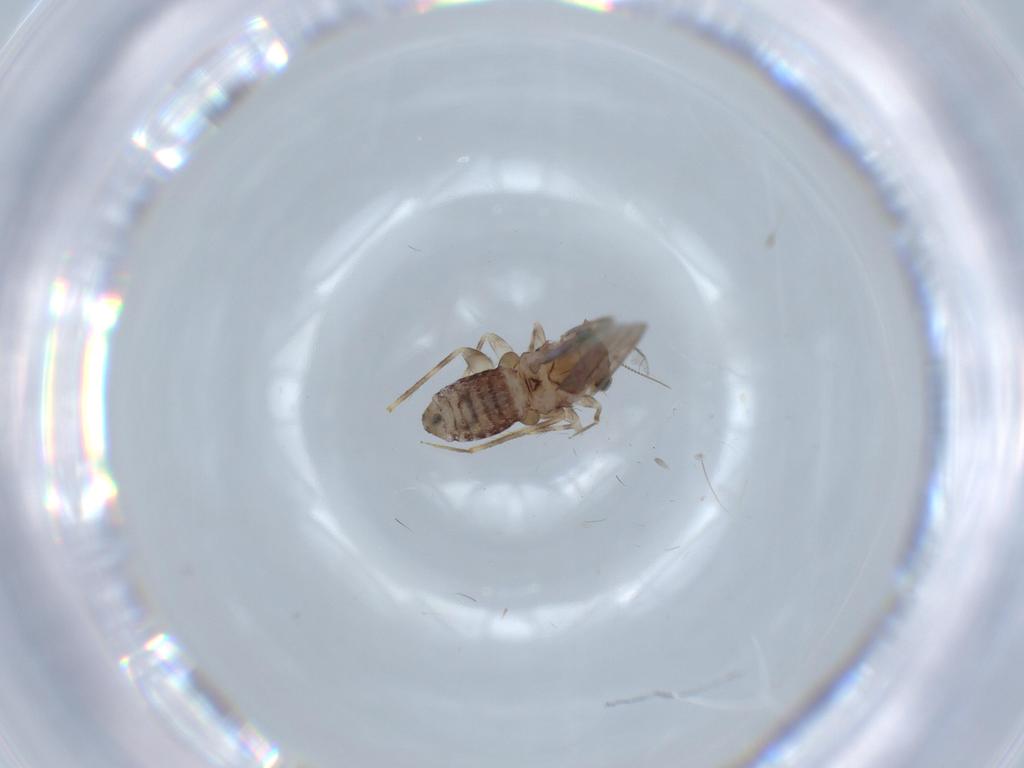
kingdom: Animalia
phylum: Arthropoda
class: Insecta
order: Psocodea
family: Lepidopsocidae
